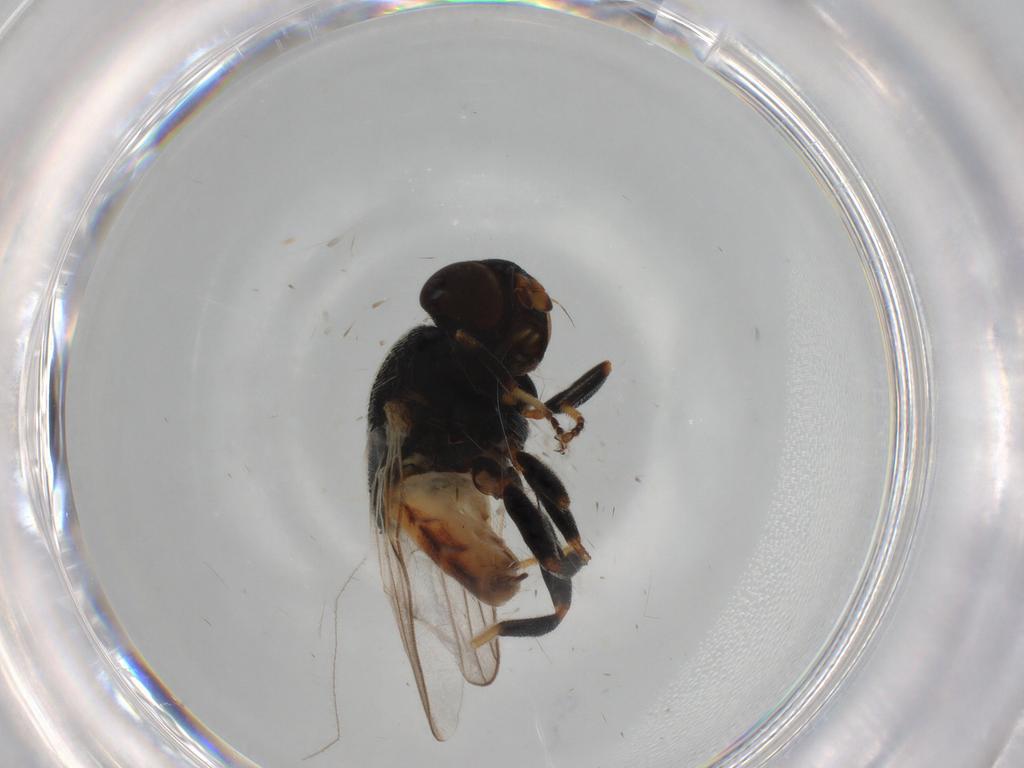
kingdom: Animalia
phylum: Arthropoda
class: Insecta
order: Diptera
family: Chloropidae
